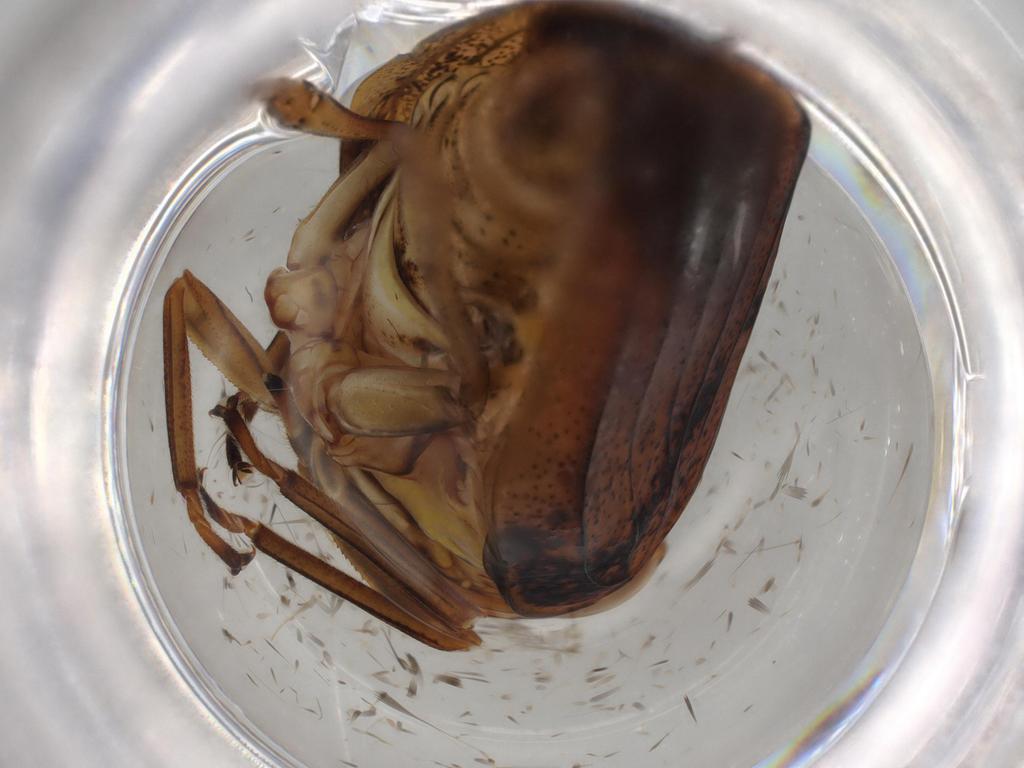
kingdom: Animalia
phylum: Arthropoda
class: Insecta
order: Hemiptera
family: Issidae
